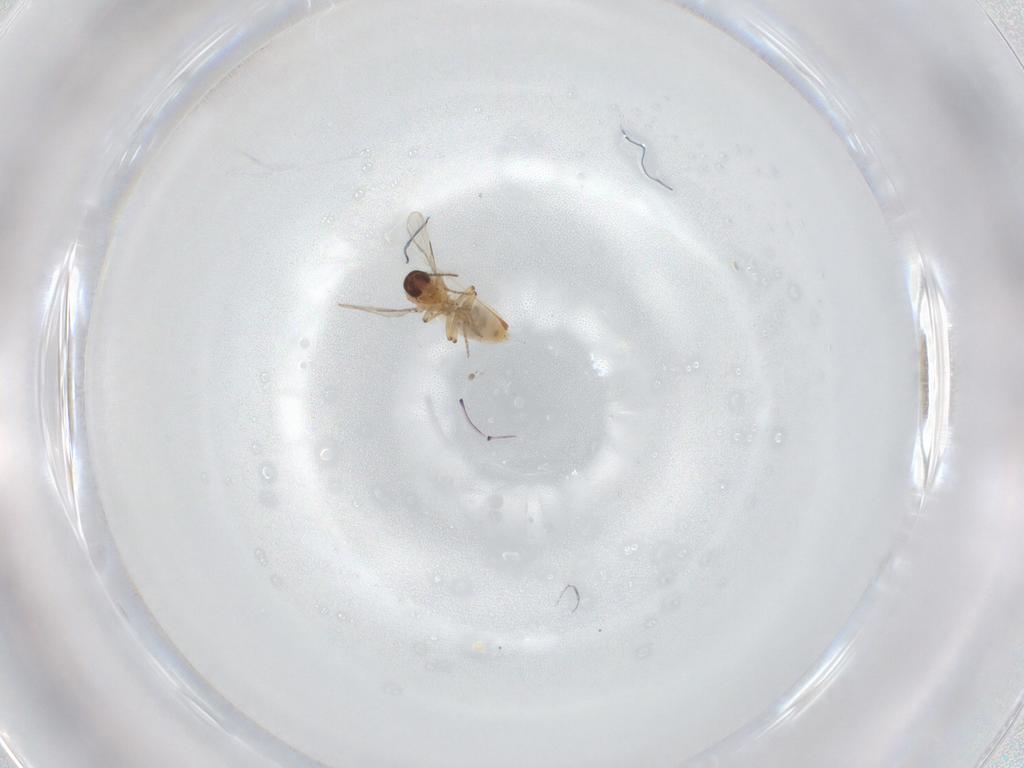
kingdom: Animalia
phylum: Arthropoda
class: Insecta
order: Diptera
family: Ceratopogonidae
